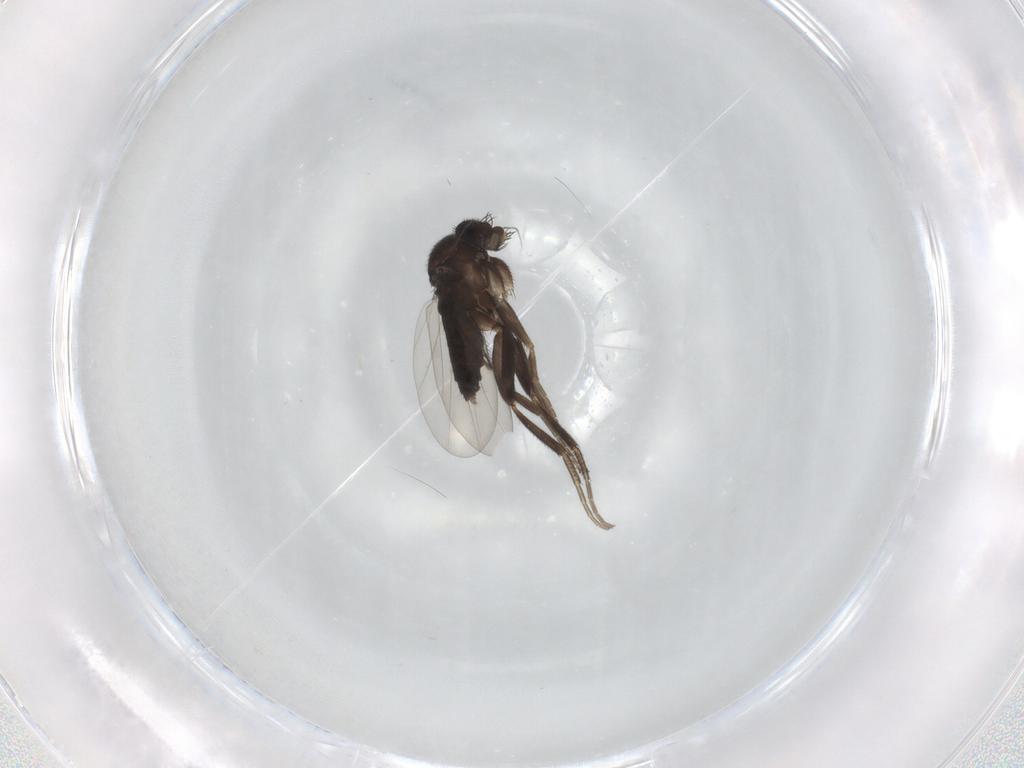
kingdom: Animalia
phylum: Arthropoda
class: Insecta
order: Diptera
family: Phoridae
